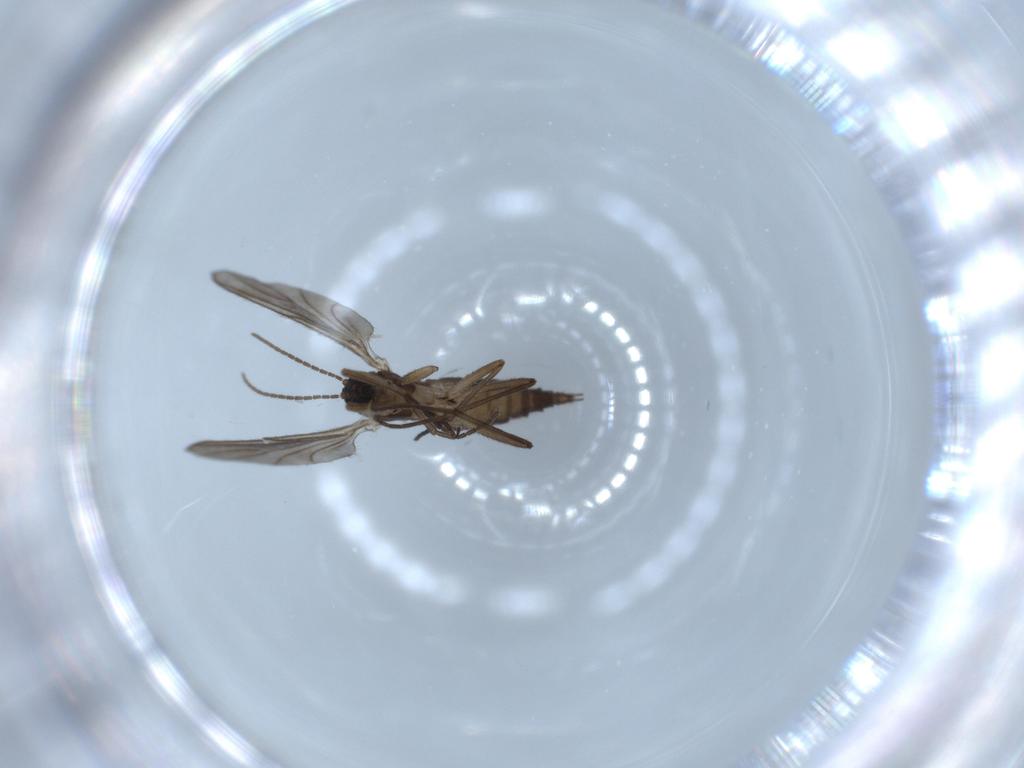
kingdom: Animalia
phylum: Arthropoda
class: Insecta
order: Diptera
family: Sciaridae
